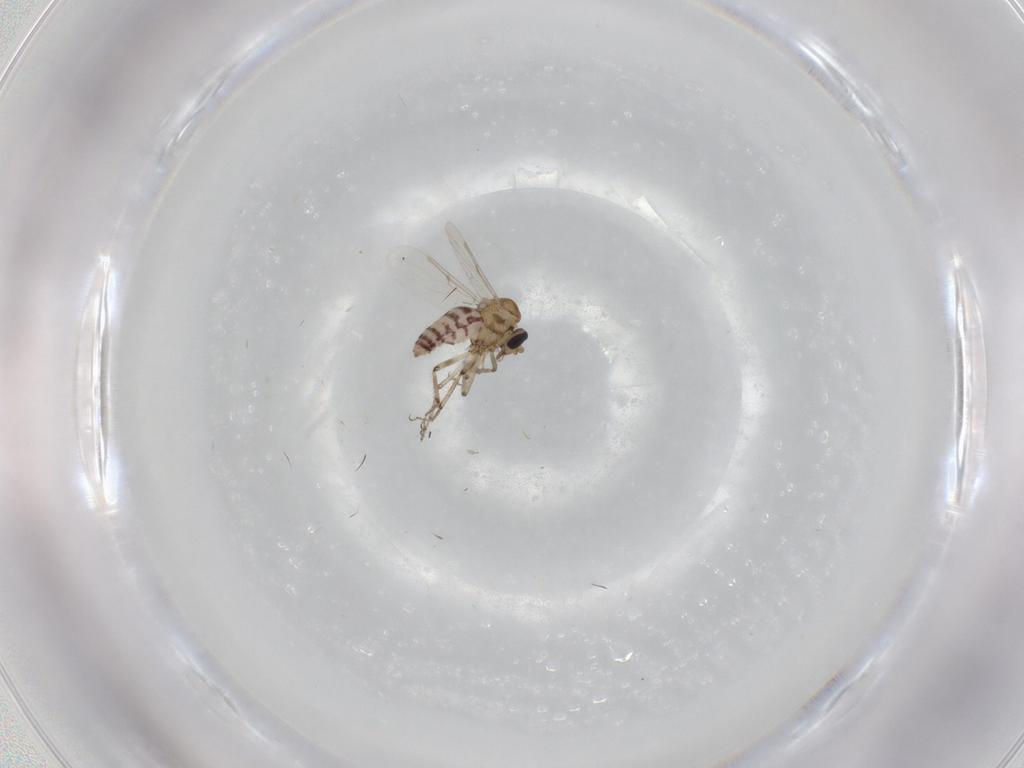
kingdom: Animalia
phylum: Arthropoda
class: Insecta
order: Diptera
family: Ceratopogonidae
